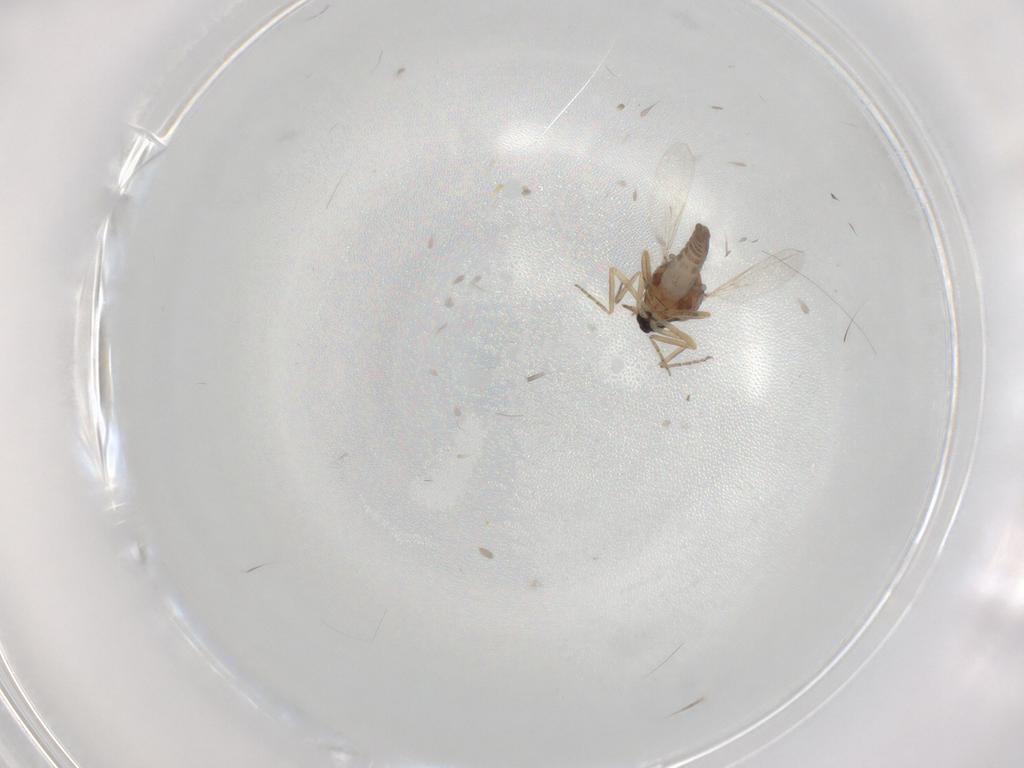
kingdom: Animalia
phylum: Arthropoda
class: Insecta
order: Diptera
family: Ceratopogonidae
